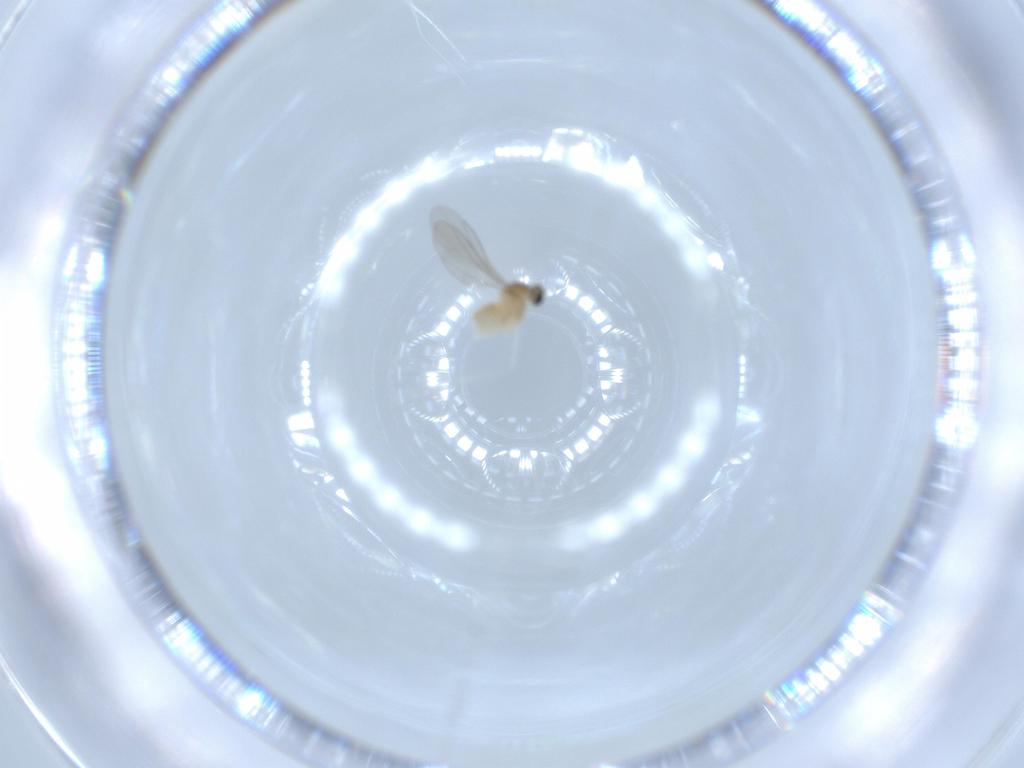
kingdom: Animalia
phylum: Arthropoda
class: Insecta
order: Diptera
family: Cecidomyiidae
